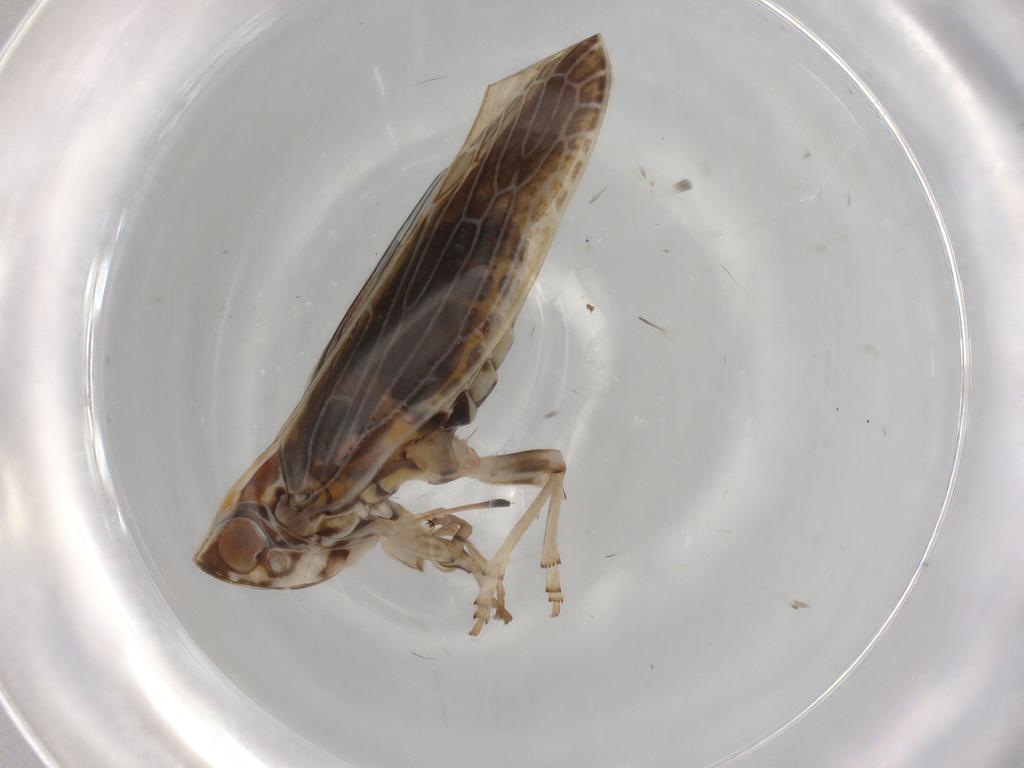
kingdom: Animalia
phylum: Arthropoda
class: Insecta
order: Hemiptera
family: Achilidae
